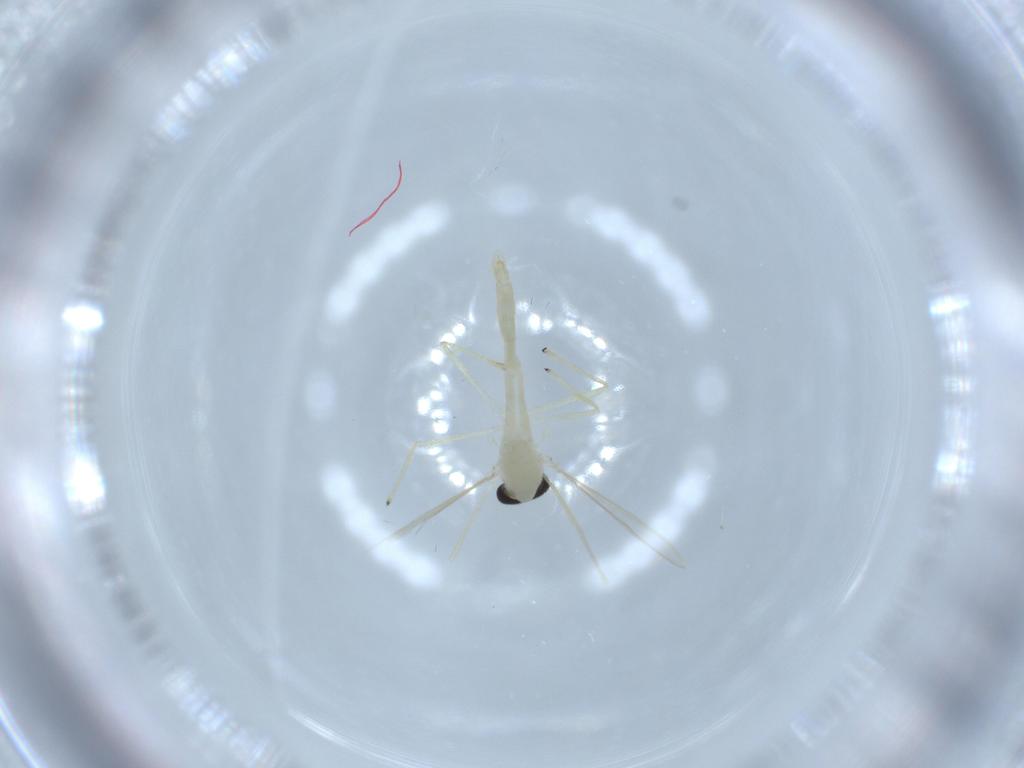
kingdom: Animalia
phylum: Arthropoda
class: Insecta
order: Diptera
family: Chironomidae
